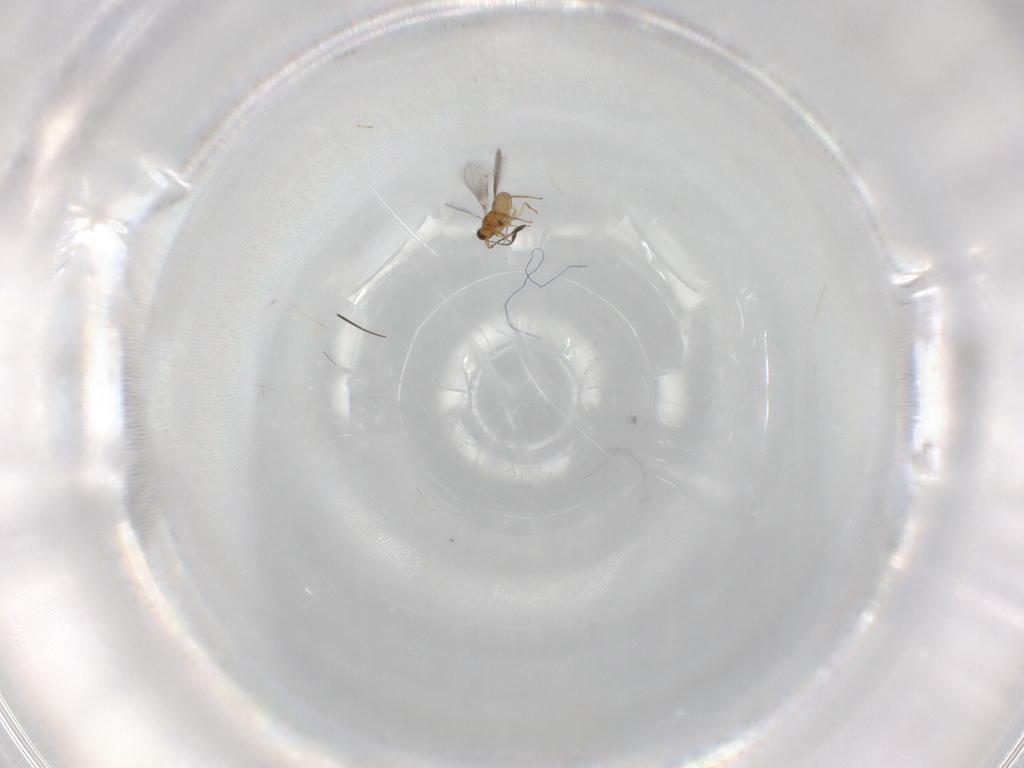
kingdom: Animalia
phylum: Arthropoda
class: Insecta
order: Hymenoptera
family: Mymaridae
